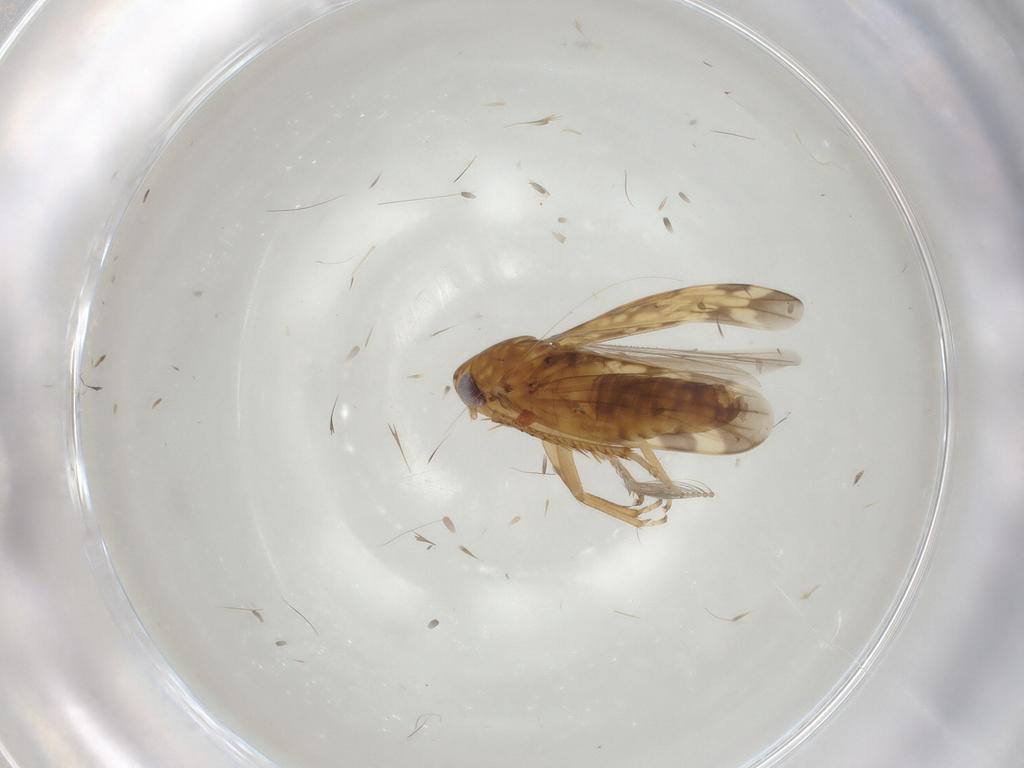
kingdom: Animalia
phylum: Arthropoda
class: Insecta
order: Hemiptera
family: Cicadellidae
